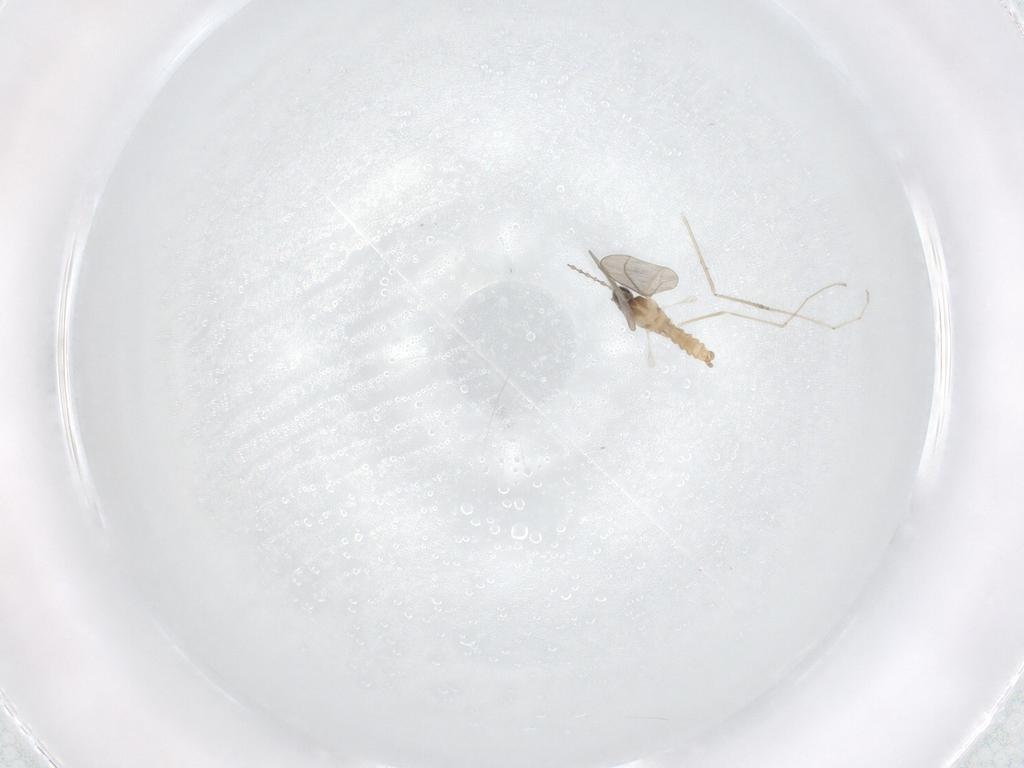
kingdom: Animalia
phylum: Arthropoda
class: Insecta
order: Diptera
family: Cecidomyiidae
